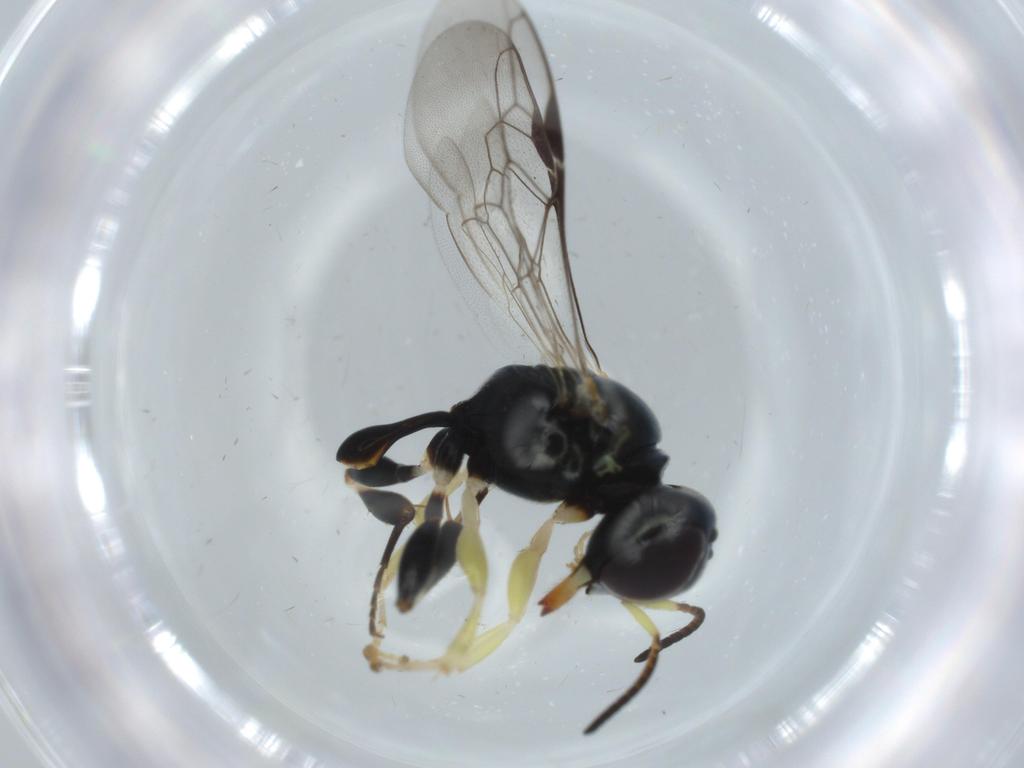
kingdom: Animalia
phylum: Arthropoda
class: Insecta
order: Hymenoptera
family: Crabronidae
